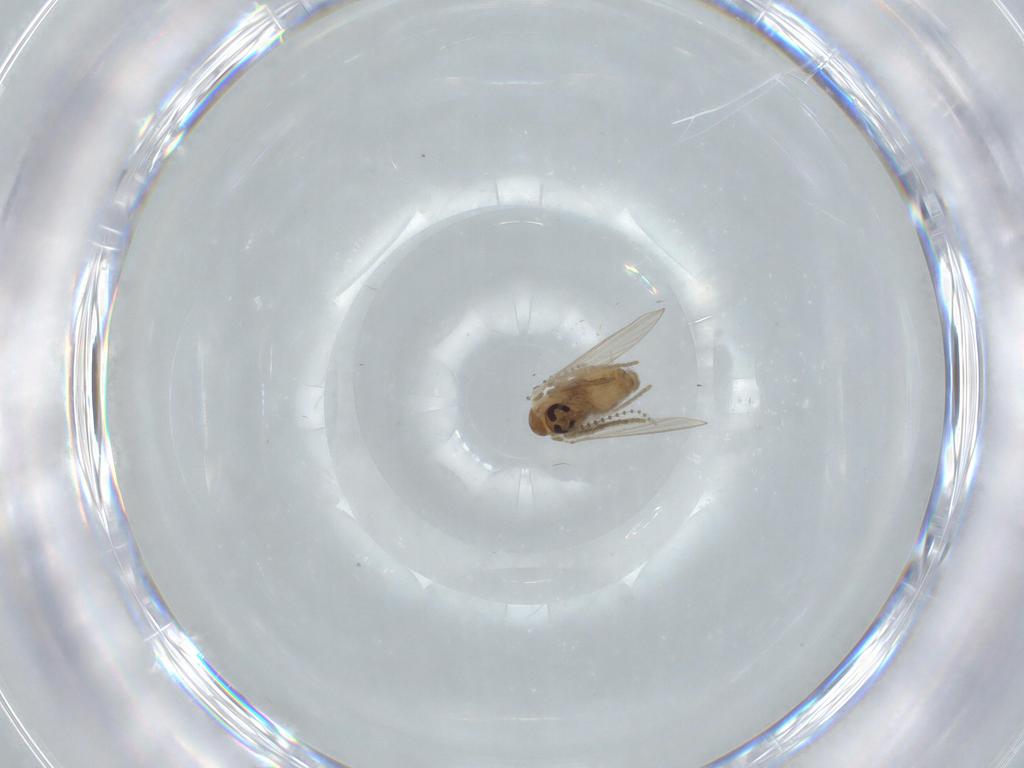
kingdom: Animalia
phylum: Arthropoda
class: Insecta
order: Diptera
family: Psychodidae
